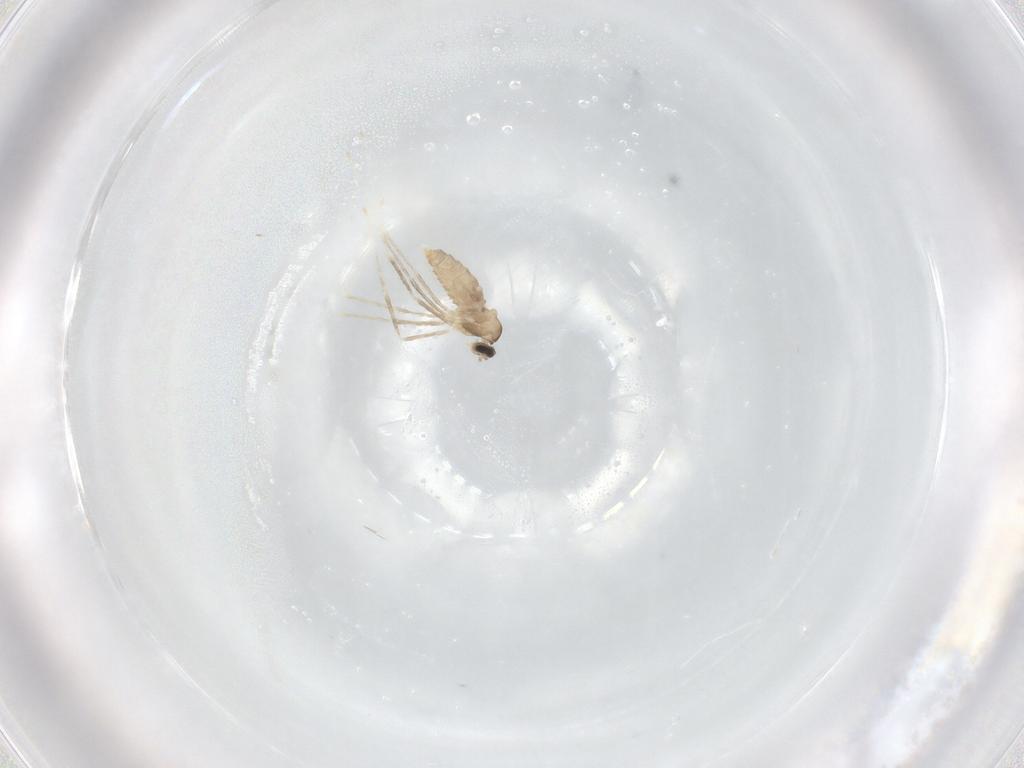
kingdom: Animalia
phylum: Arthropoda
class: Insecta
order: Diptera
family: Cecidomyiidae
